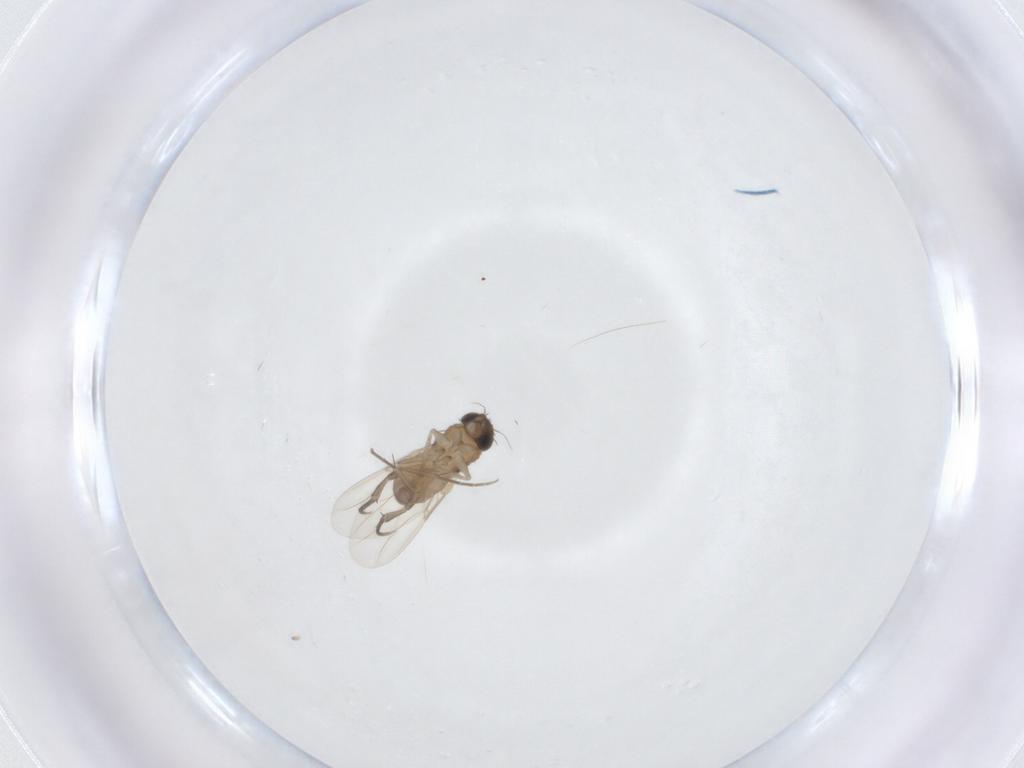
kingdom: Animalia
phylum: Arthropoda
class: Insecta
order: Diptera
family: Phoridae
